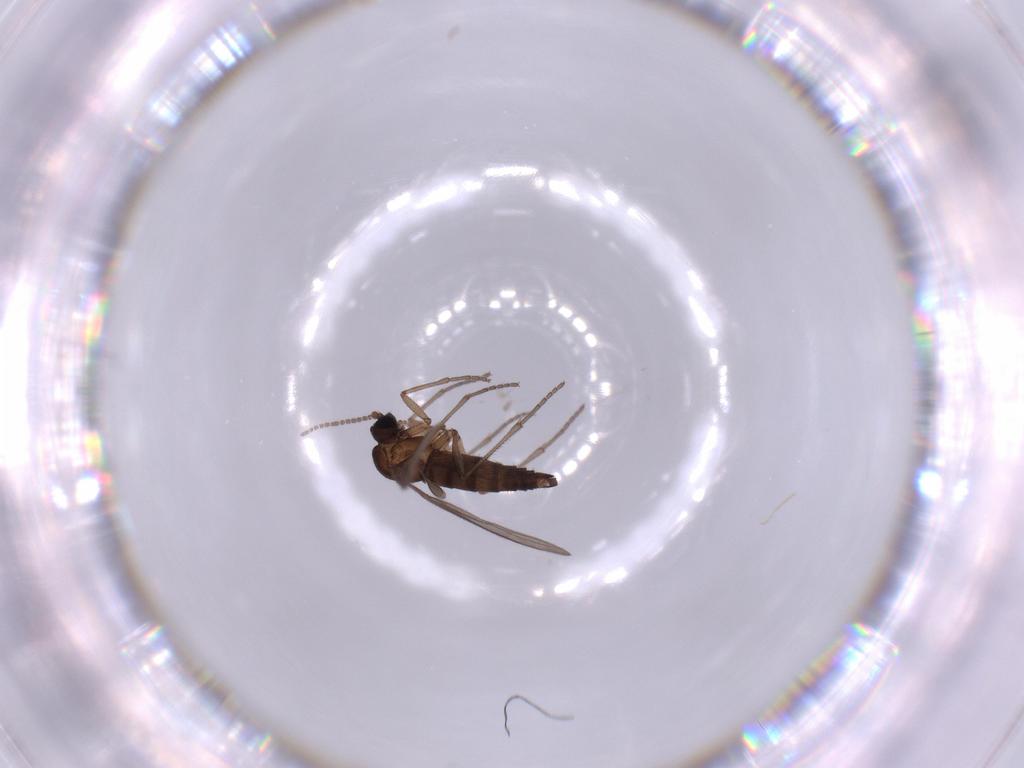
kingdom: Animalia
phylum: Arthropoda
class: Insecta
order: Diptera
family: Sciaridae
